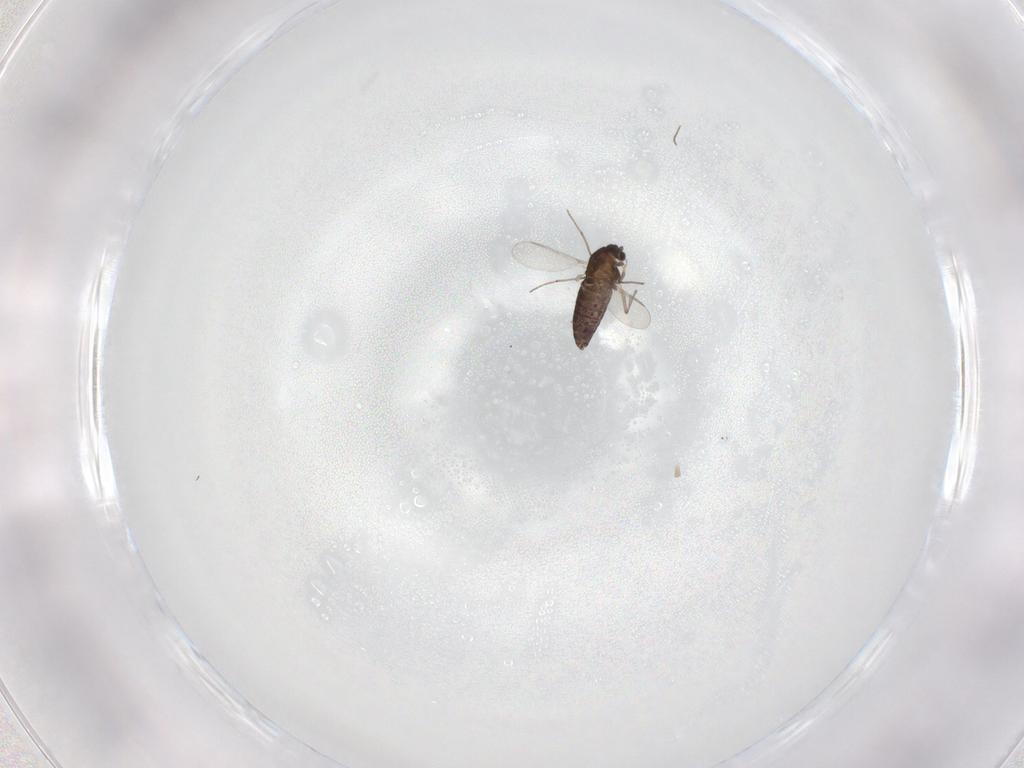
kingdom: Animalia
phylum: Arthropoda
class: Insecta
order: Diptera
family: Chironomidae
